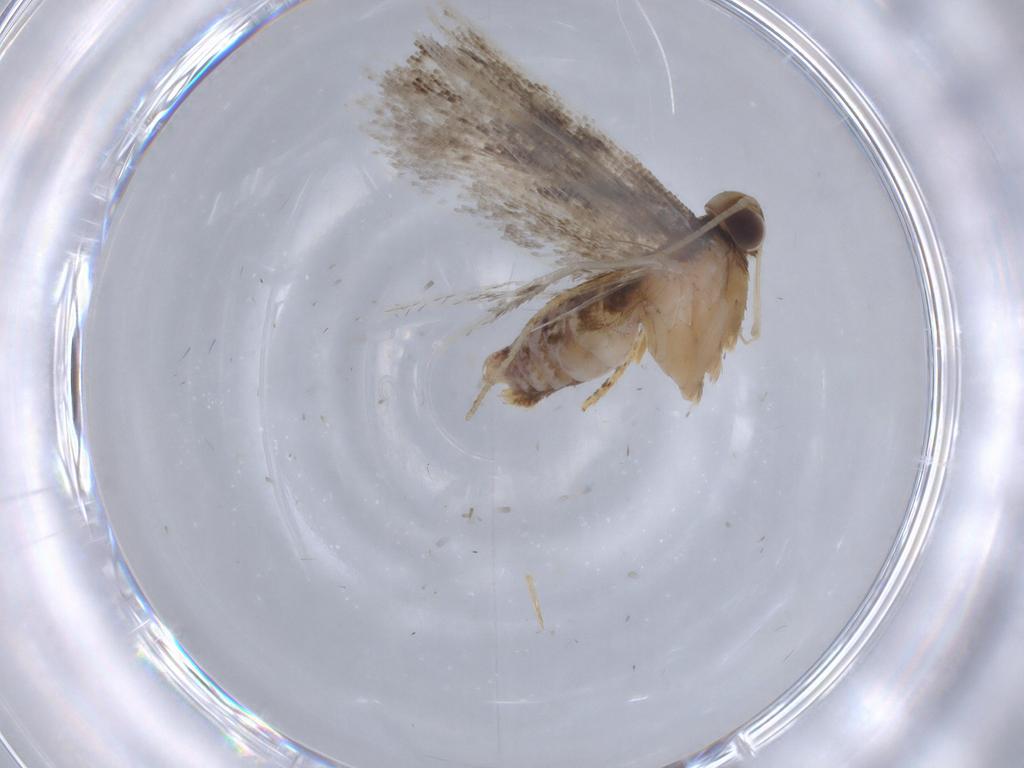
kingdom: Animalia
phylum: Arthropoda
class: Insecta
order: Lepidoptera
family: Gelechiidae
